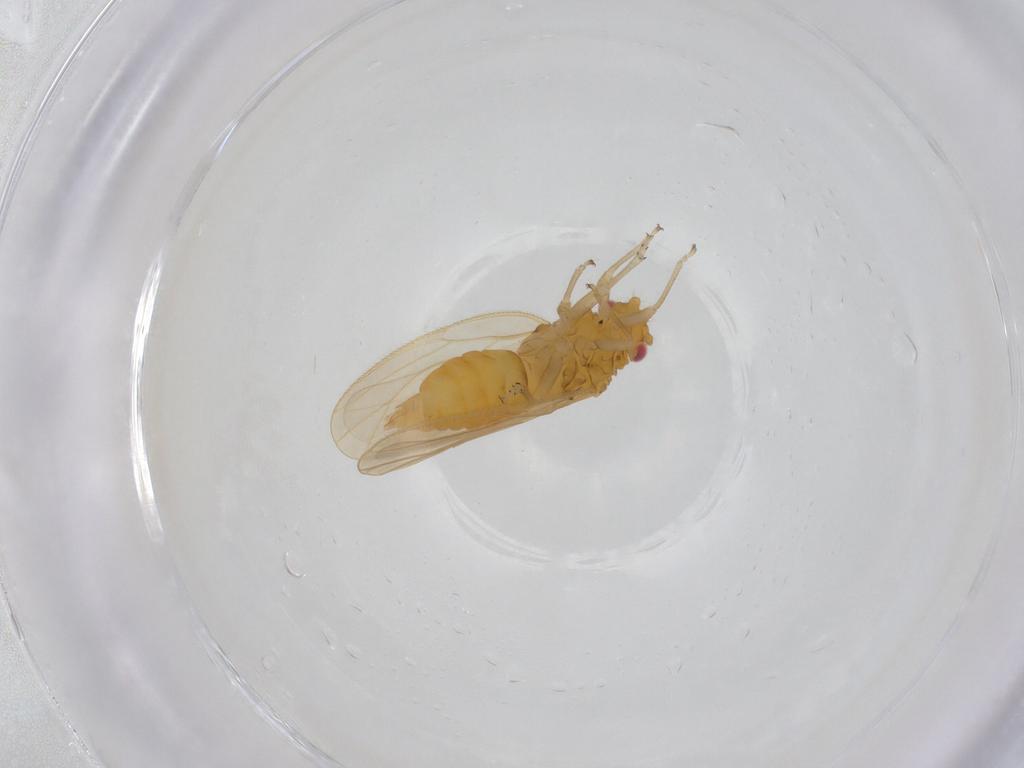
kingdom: Animalia
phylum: Arthropoda
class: Insecta
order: Hemiptera
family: Psyllidae
